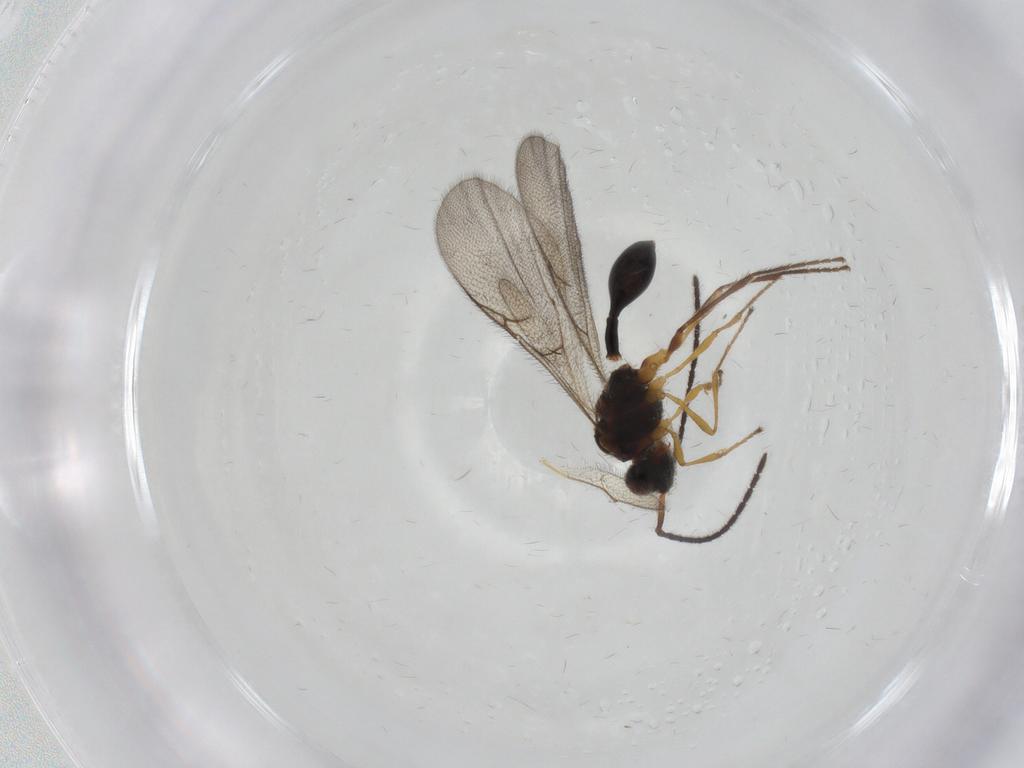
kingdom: Animalia
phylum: Arthropoda
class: Insecta
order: Hymenoptera
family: Diapriidae
